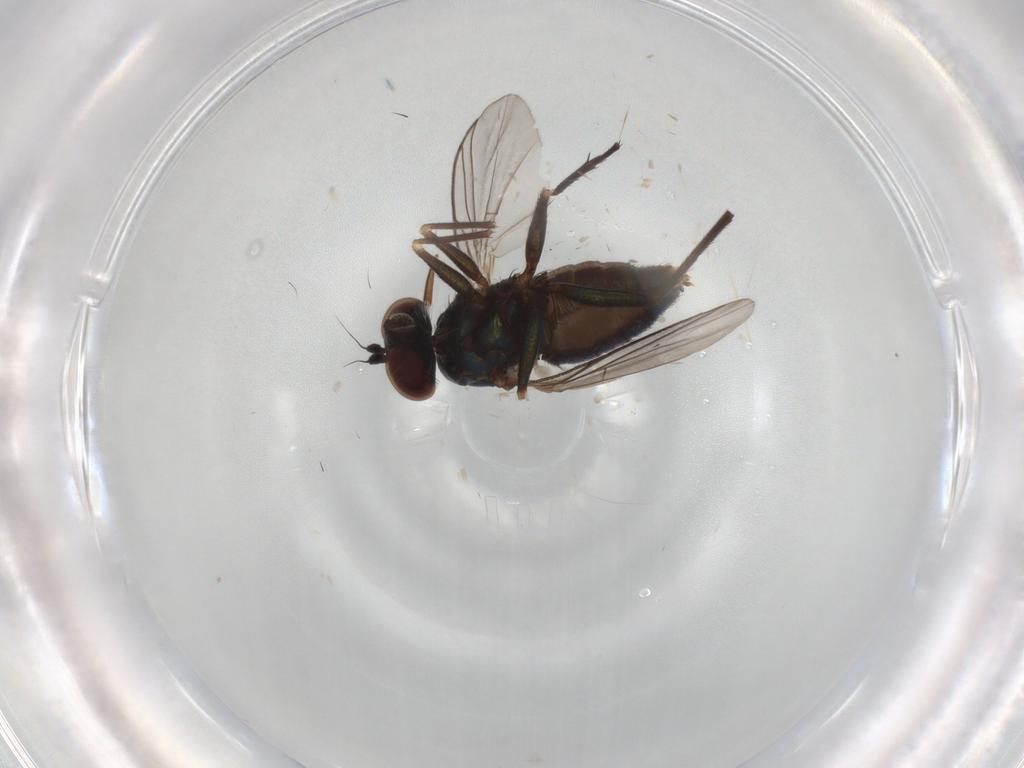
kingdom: Animalia
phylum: Arthropoda
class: Insecta
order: Diptera
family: Dolichopodidae
